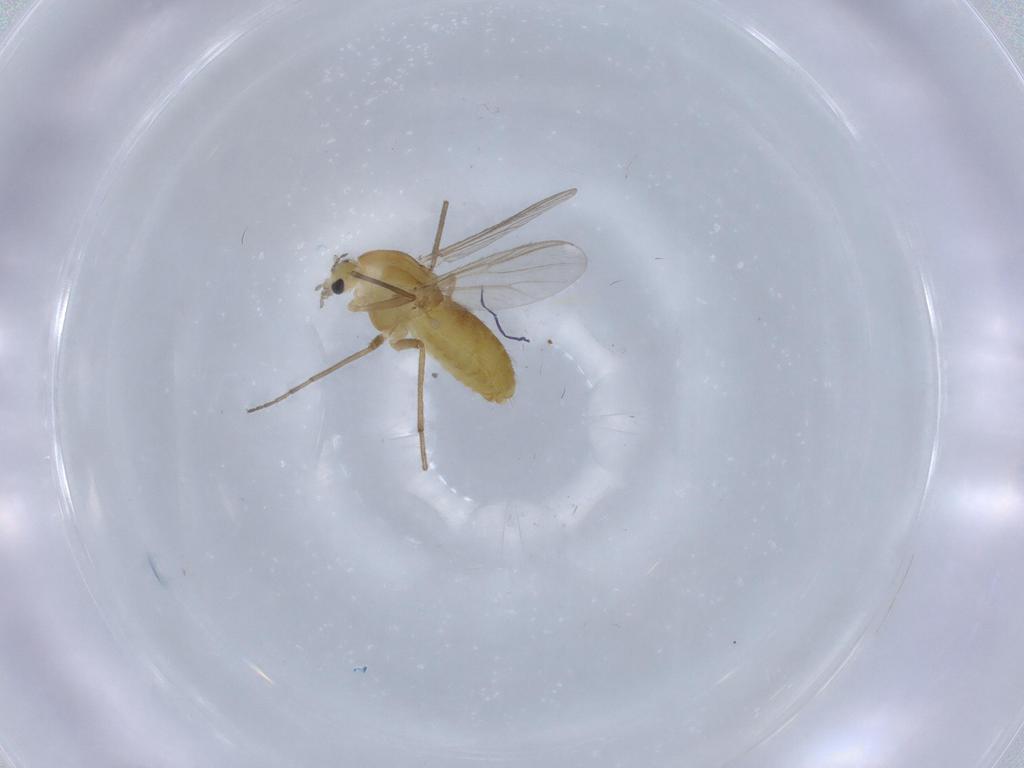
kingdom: Animalia
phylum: Arthropoda
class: Insecta
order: Diptera
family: Chironomidae
